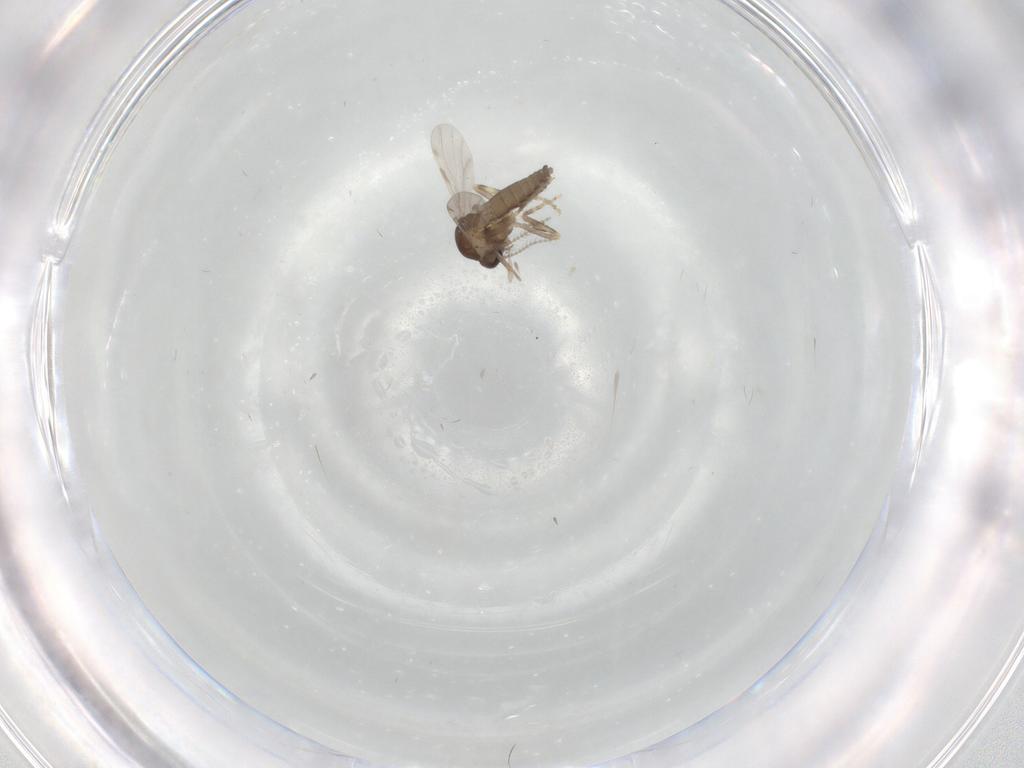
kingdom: Animalia
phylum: Arthropoda
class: Insecta
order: Diptera
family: Ceratopogonidae
